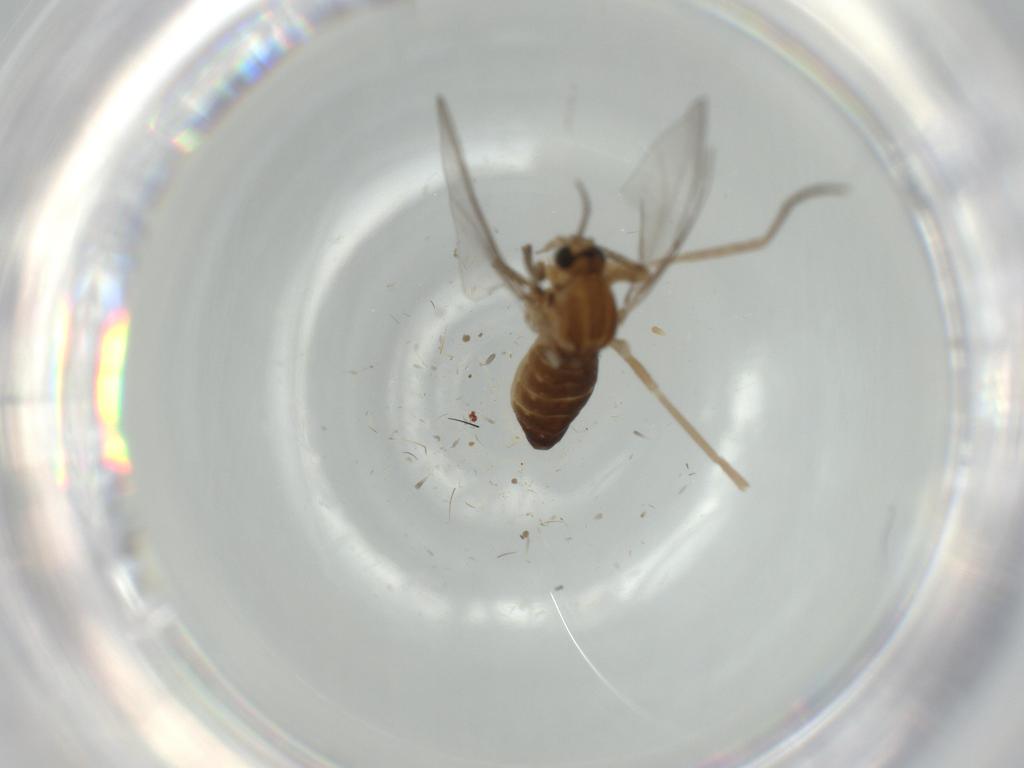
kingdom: Animalia
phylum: Arthropoda
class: Insecta
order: Diptera
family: Cecidomyiidae
